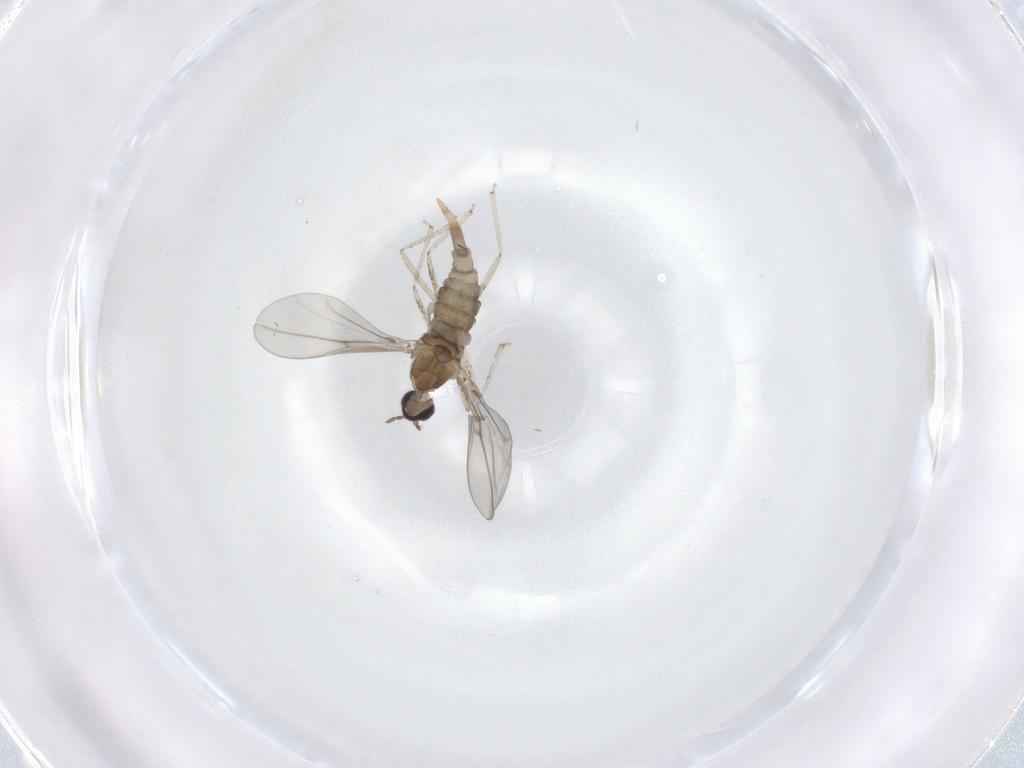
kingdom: Animalia
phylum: Arthropoda
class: Insecta
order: Diptera
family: Cecidomyiidae
